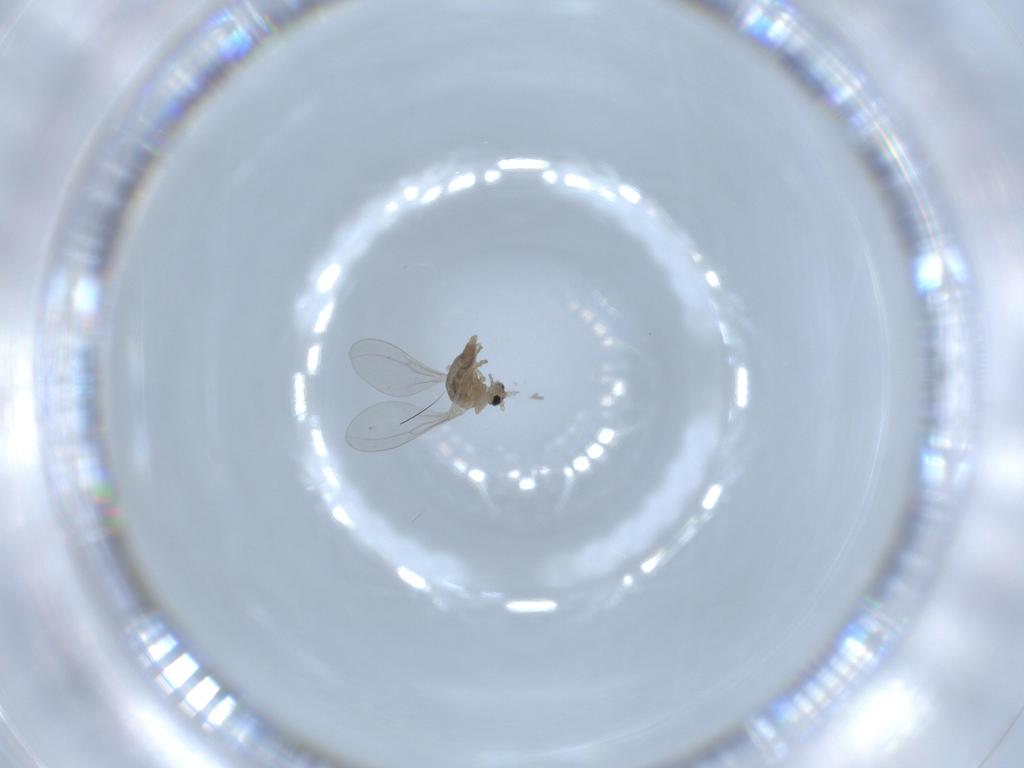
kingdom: Animalia
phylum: Arthropoda
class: Insecta
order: Diptera
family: Cecidomyiidae
